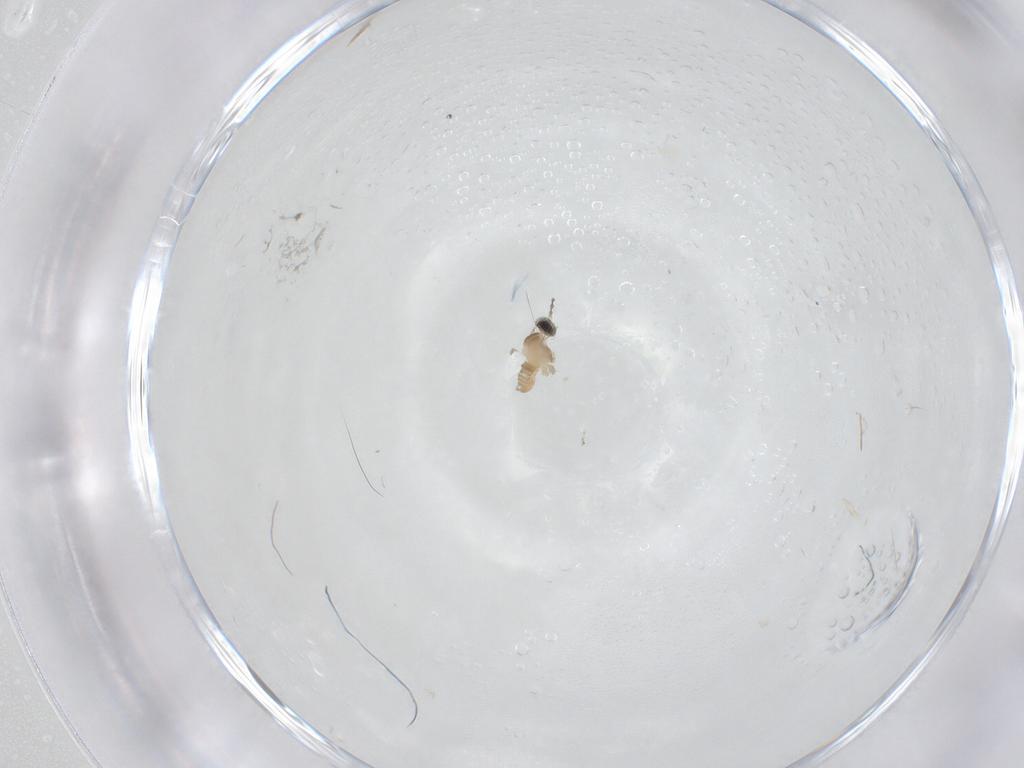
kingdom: Animalia
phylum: Arthropoda
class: Insecta
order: Diptera
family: Cecidomyiidae
